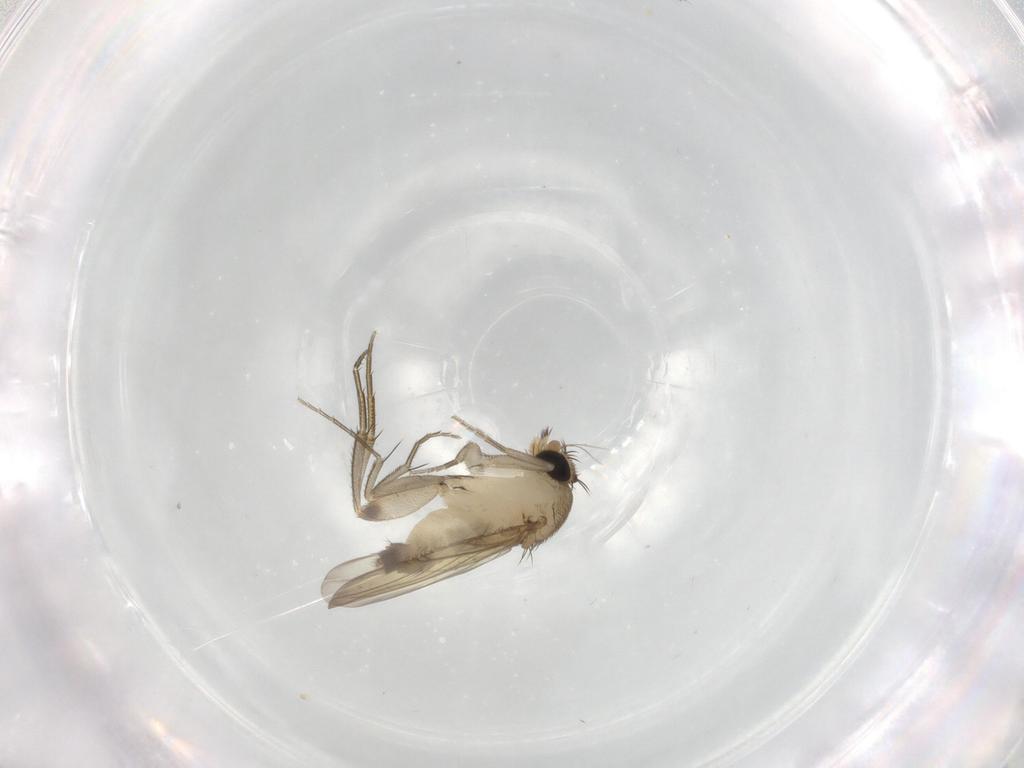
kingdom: Animalia
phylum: Arthropoda
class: Insecta
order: Diptera
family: Phoridae
